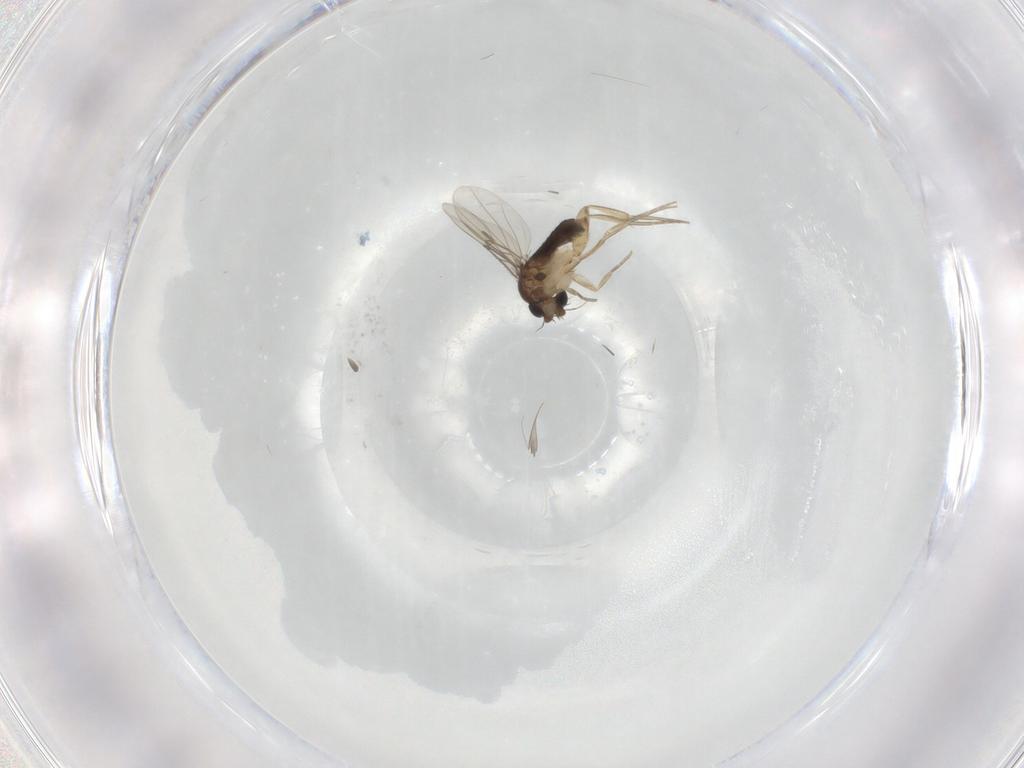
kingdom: Animalia
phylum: Arthropoda
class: Insecta
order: Diptera
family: Phoridae
